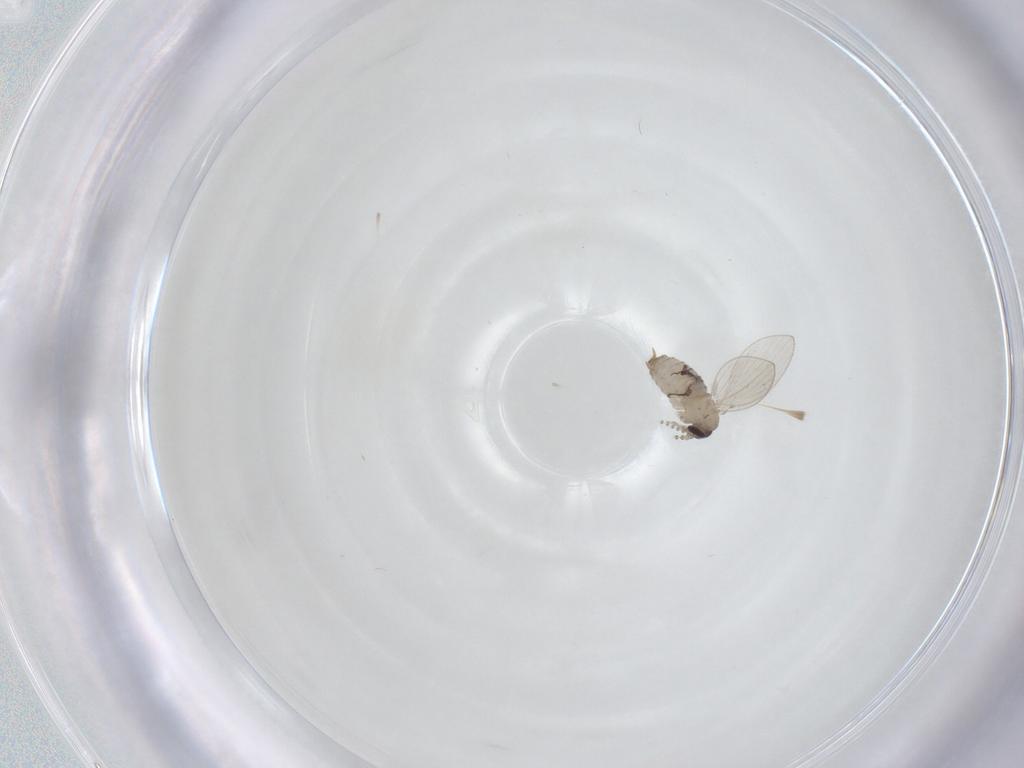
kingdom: Animalia
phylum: Arthropoda
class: Insecta
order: Diptera
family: Psychodidae
